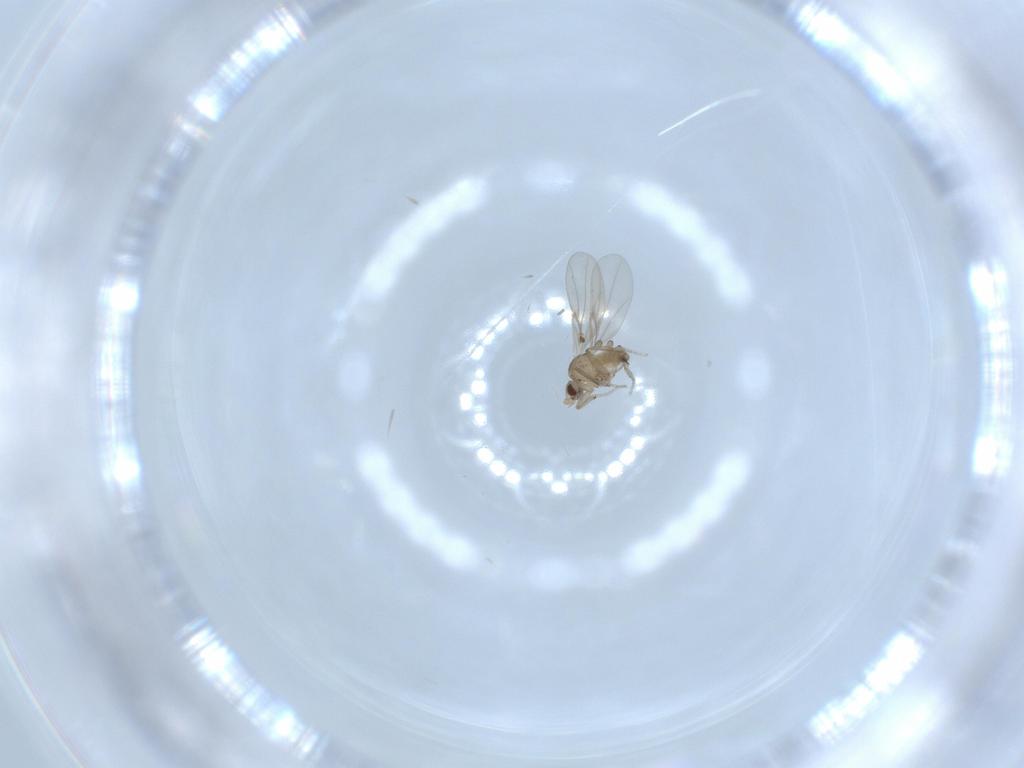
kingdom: Animalia
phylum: Arthropoda
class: Insecta
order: Diptera
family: Phoridae
